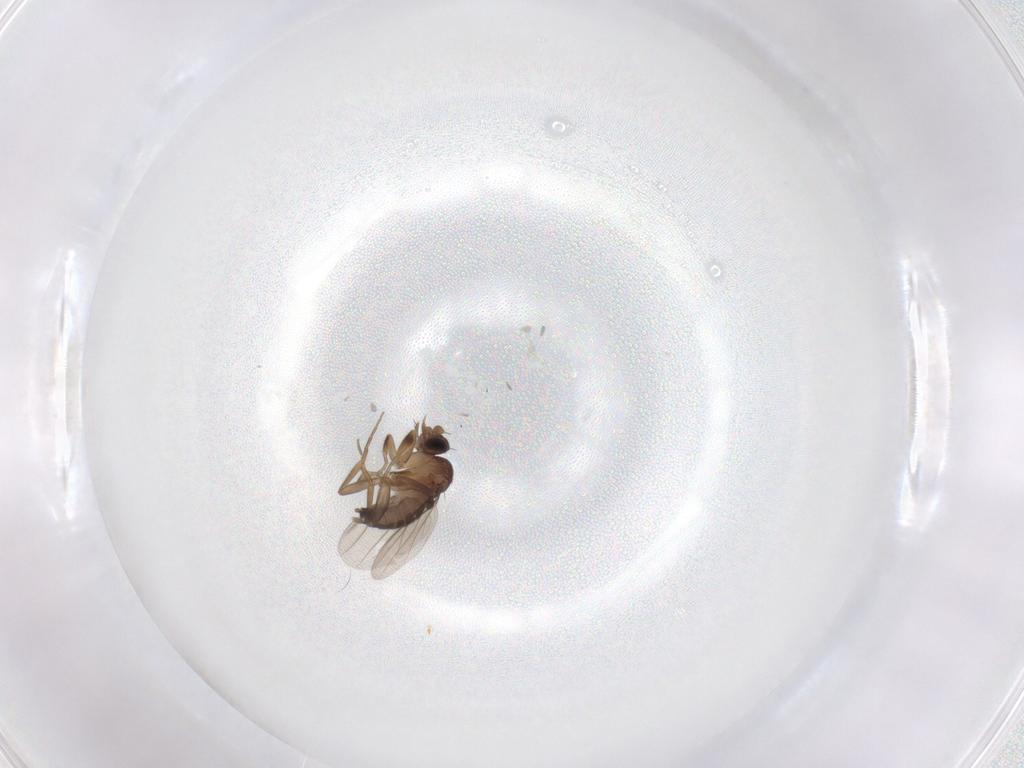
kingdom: Animalia
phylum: Arthropoda
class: Insecta
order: Diptera
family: Phoridae
